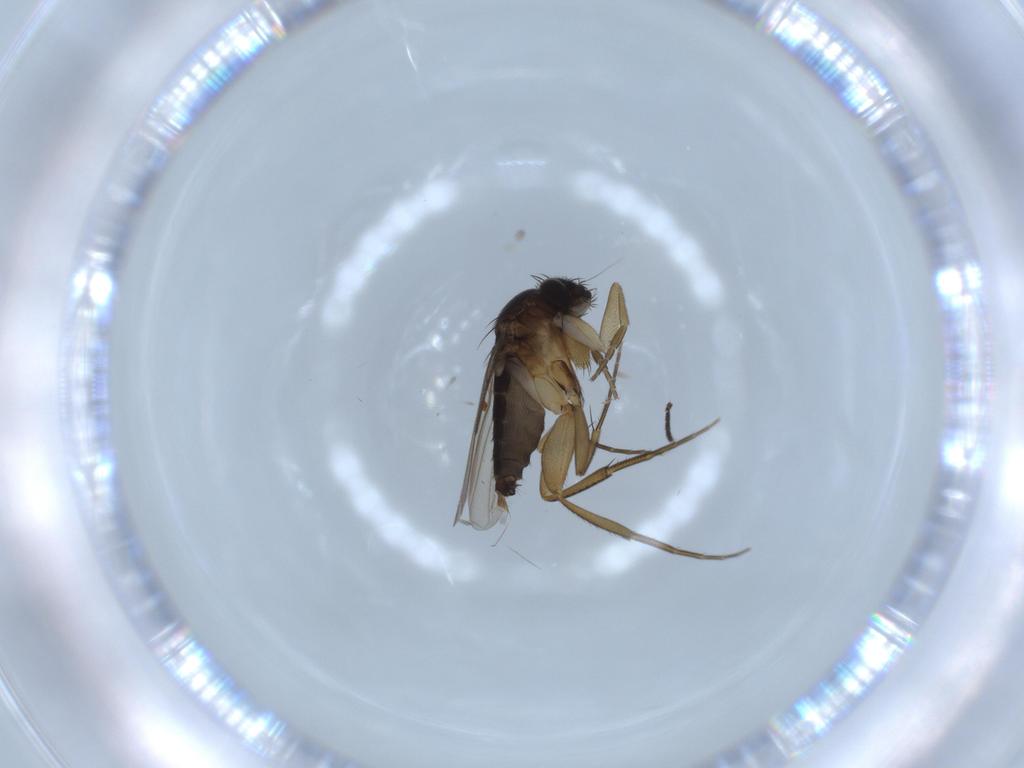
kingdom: Animalia
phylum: Arthropoda
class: Insecta
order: Diptera
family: Phoridae
